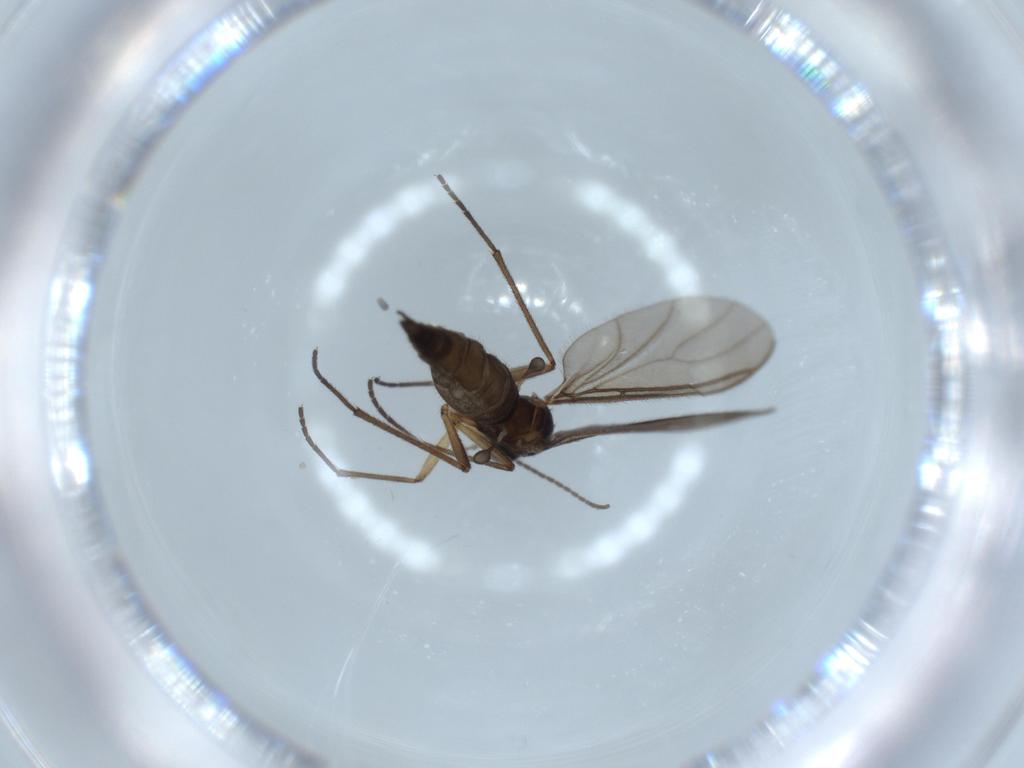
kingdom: Animalia
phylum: Arthropoda
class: Insecta
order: Diptera
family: Sciaridae
